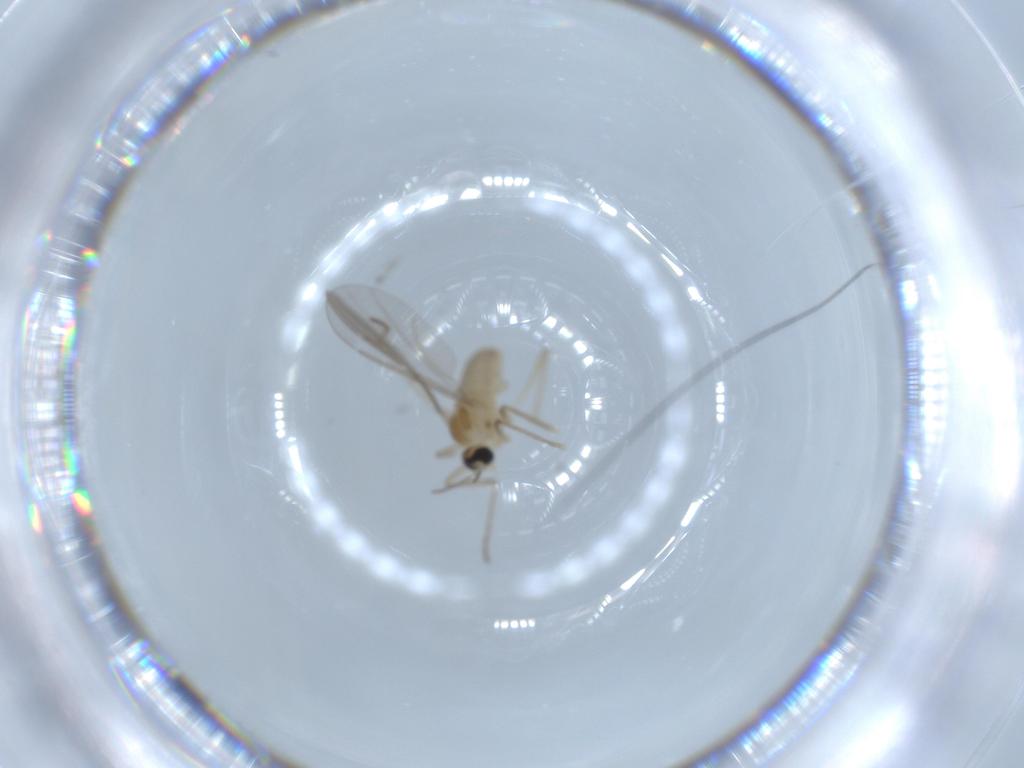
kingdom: Animalia
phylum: Arthropoda
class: Insecta
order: Diptera
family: Cecidomyiidae
